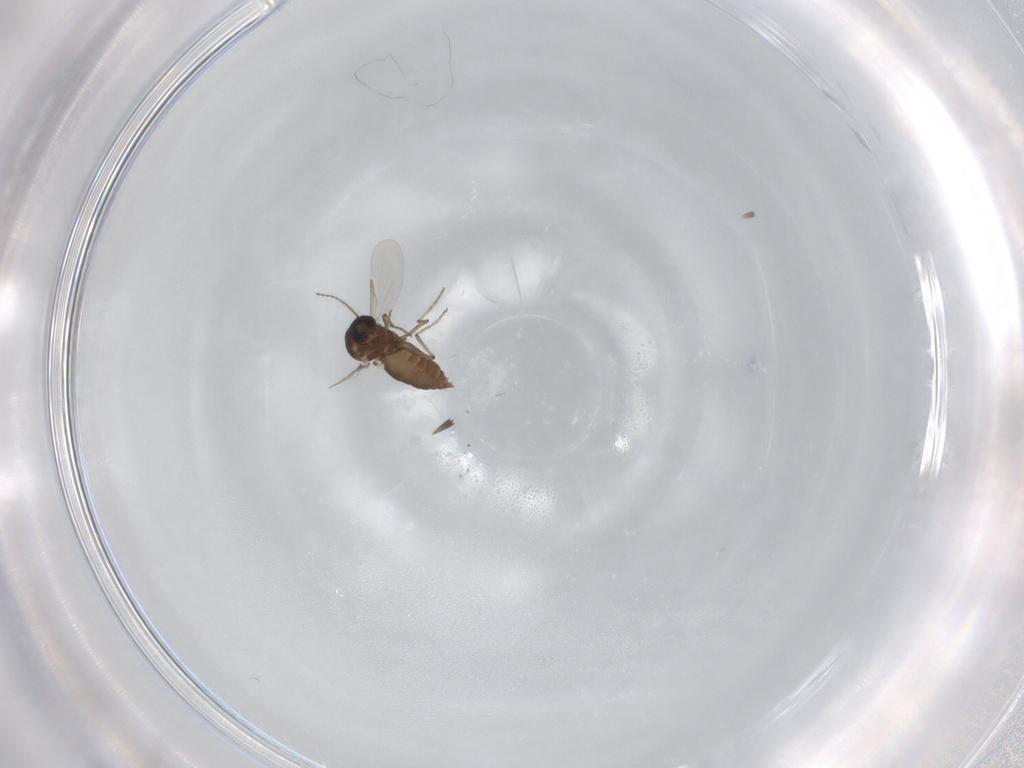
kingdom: Animalia
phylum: Arthropoda
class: Insecta
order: Diptera
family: Ceratopogonidae
